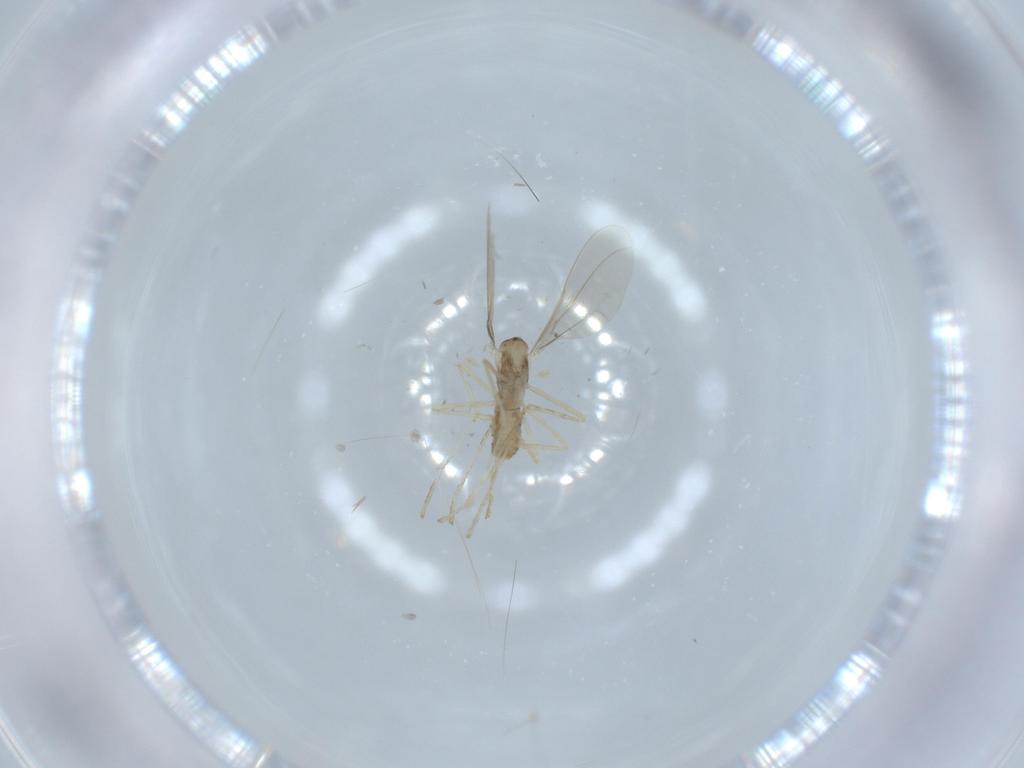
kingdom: Animalia
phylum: Arthropoda
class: Insecta
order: Diptera
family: Cecidomyiidae
